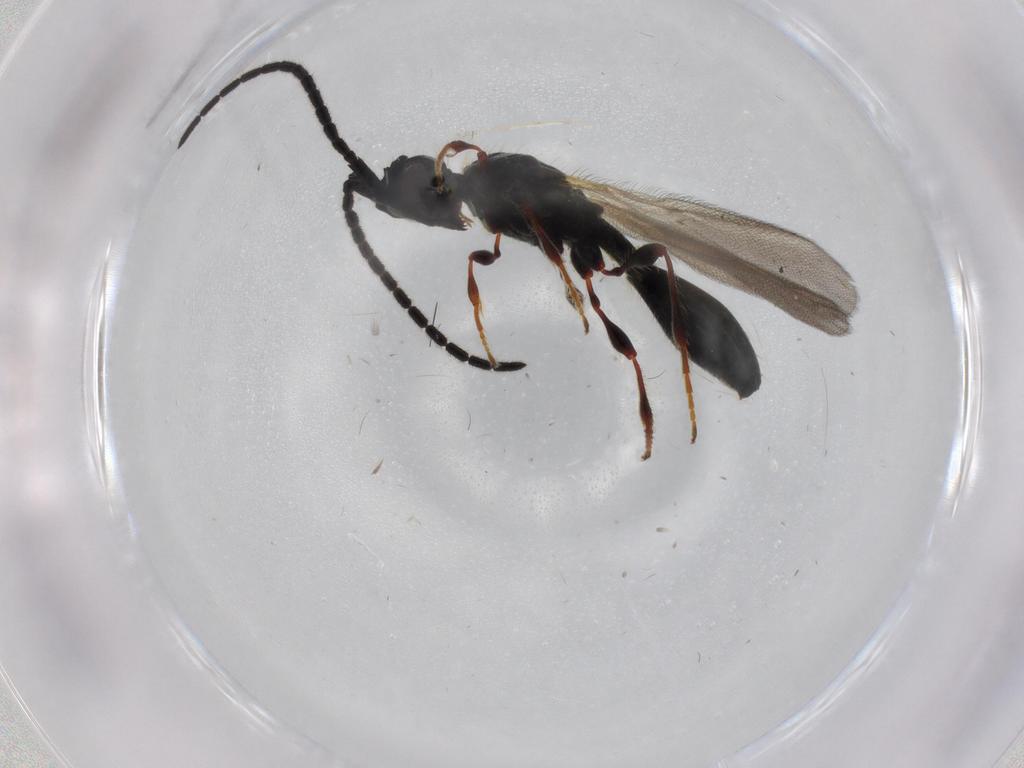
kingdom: Animalia
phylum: Arthropoda
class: Insecta
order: Hymenoptera
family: Diapriidae
